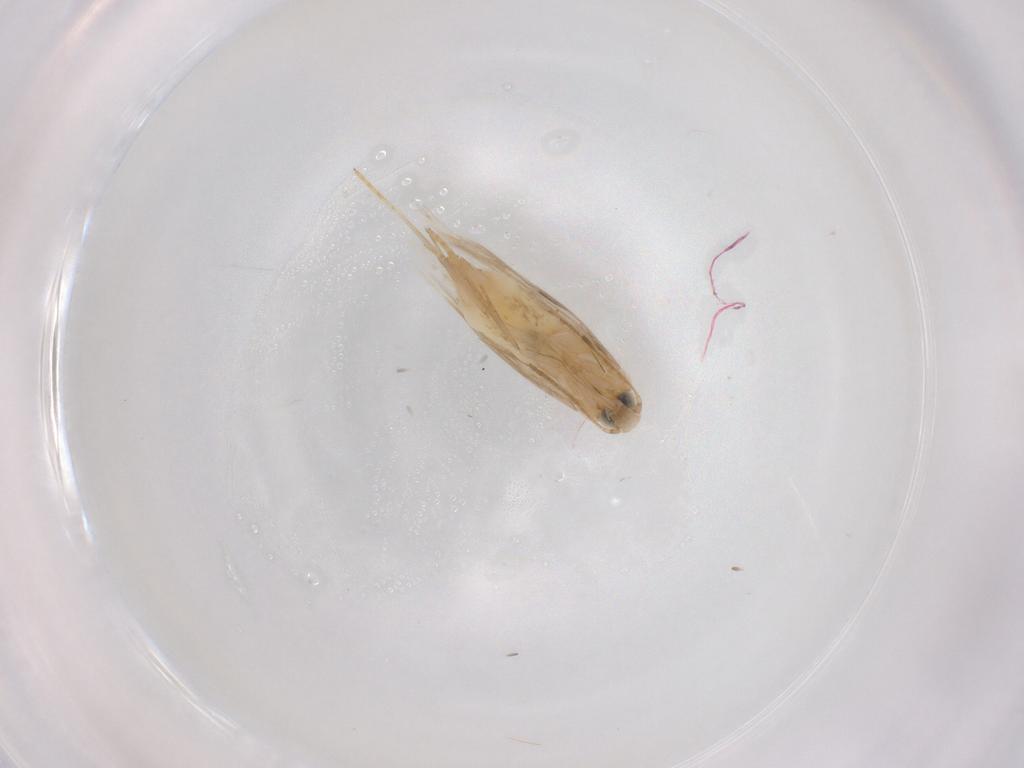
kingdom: Animalia
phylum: Arthropoda
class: Insecta
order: Lepidoptera
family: Tischeriidae
